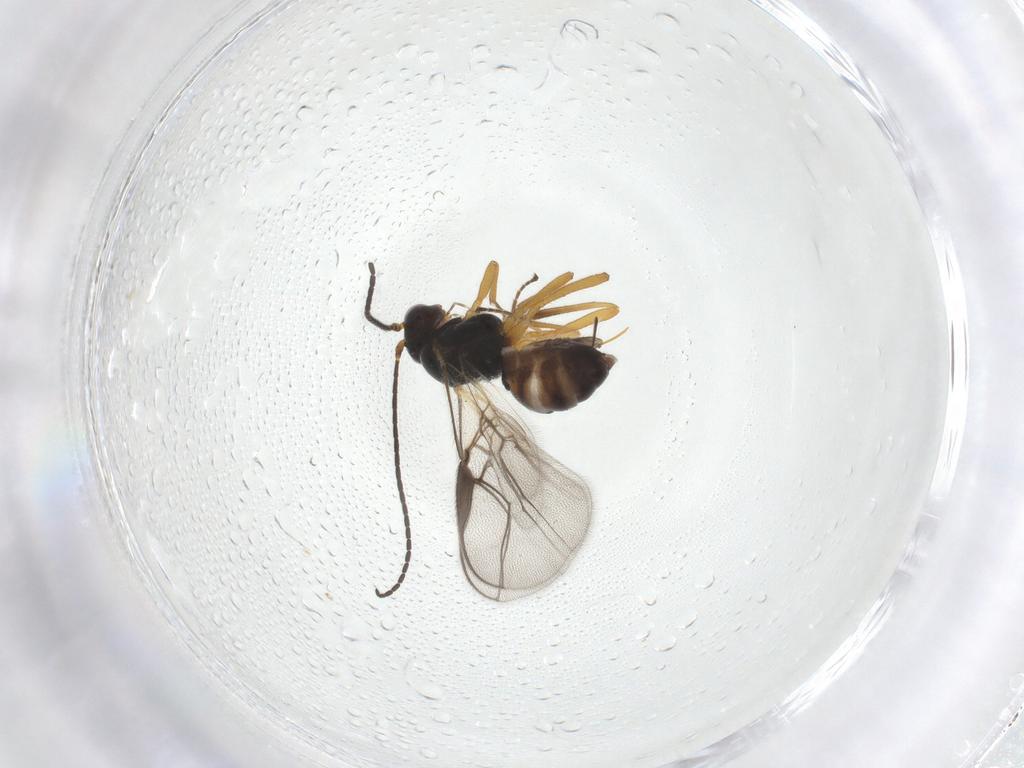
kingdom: Animalia
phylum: Arthropoda
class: Insecta
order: Hymenoptera
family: Braconidae
